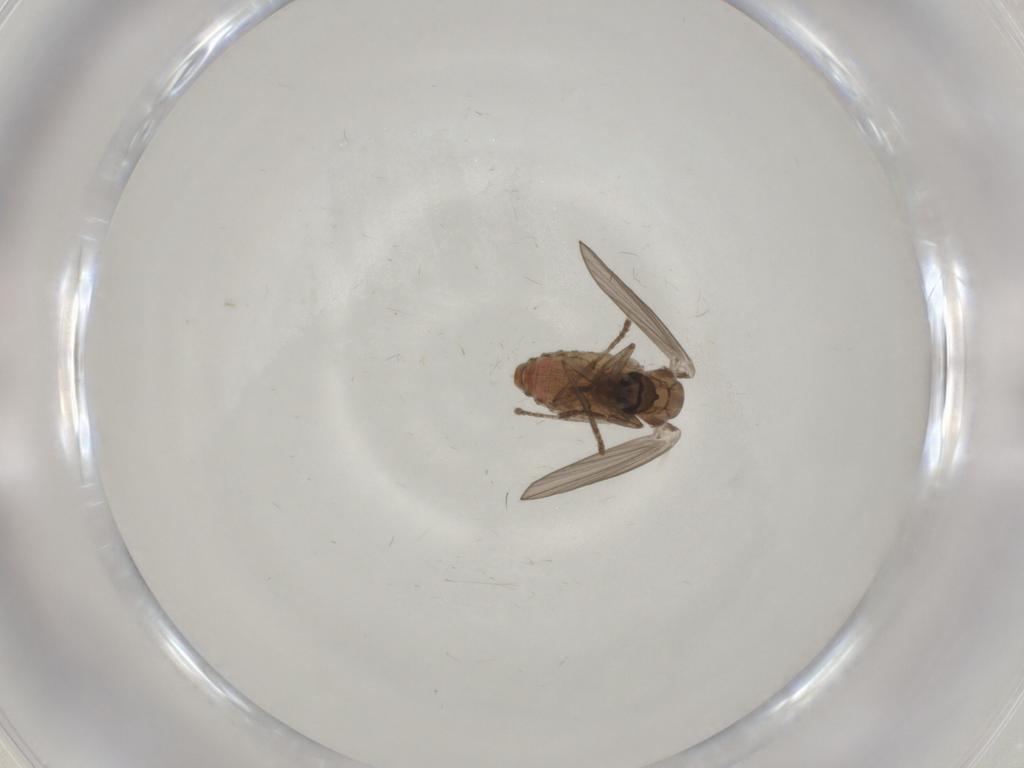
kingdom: Animalia
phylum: Arthropoda
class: Insecta
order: Diptera
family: Psychodidae
